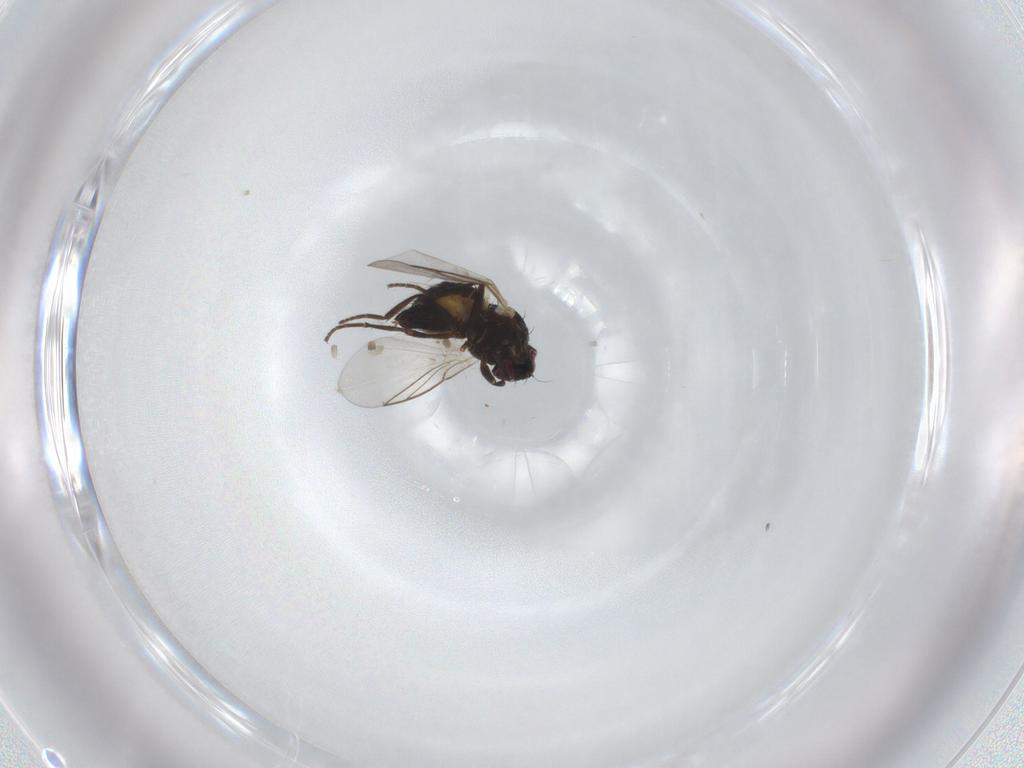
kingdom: Animalia
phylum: Arthropoda
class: Insecta
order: Diptera
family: Agromyzidae
